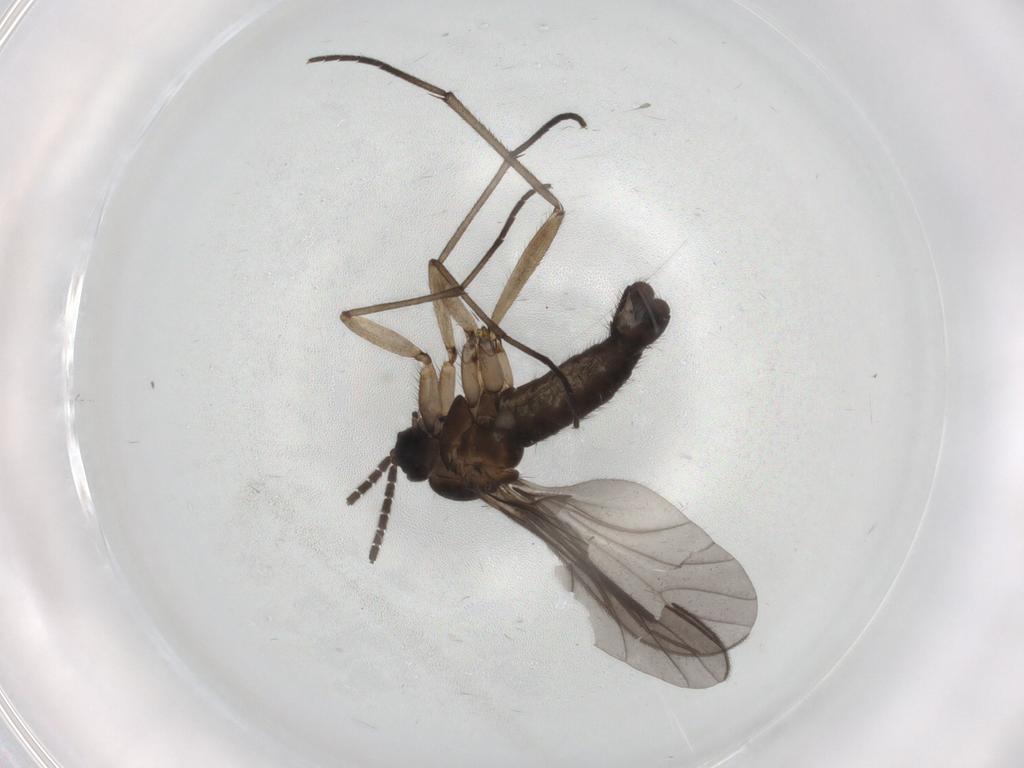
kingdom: Animalia
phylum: Arthropoda
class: Insecta
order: Diptera
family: Sciaridae
